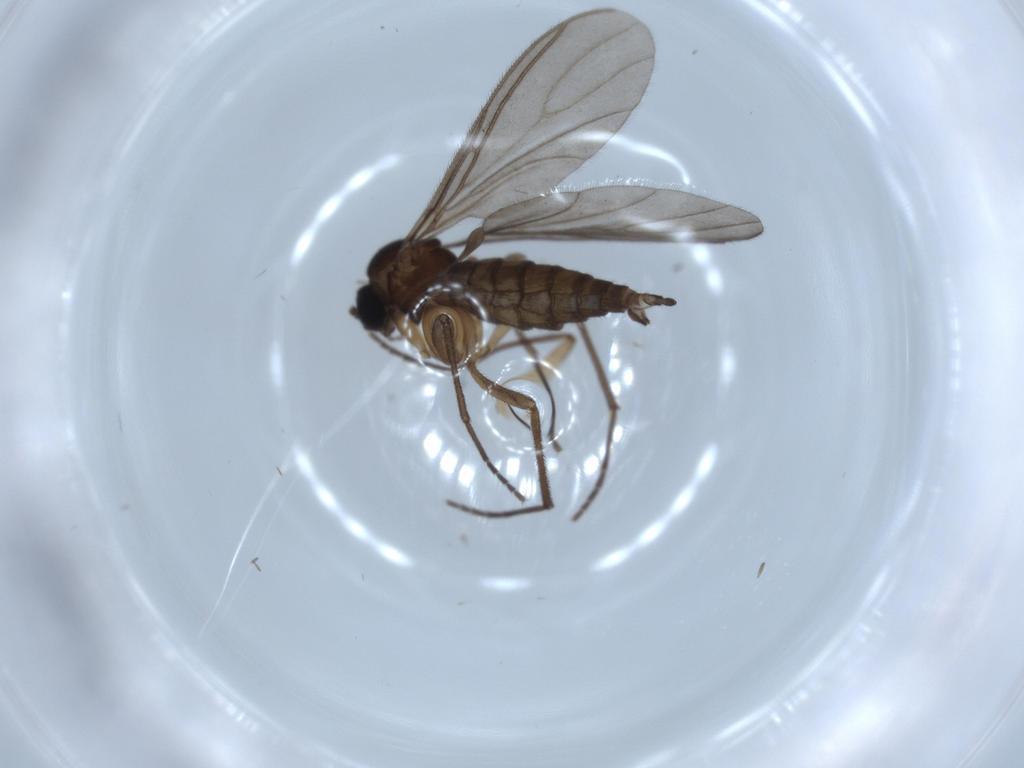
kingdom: Animalia
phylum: Arthropoda
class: Insecta
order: Diptera
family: Sciaridae
